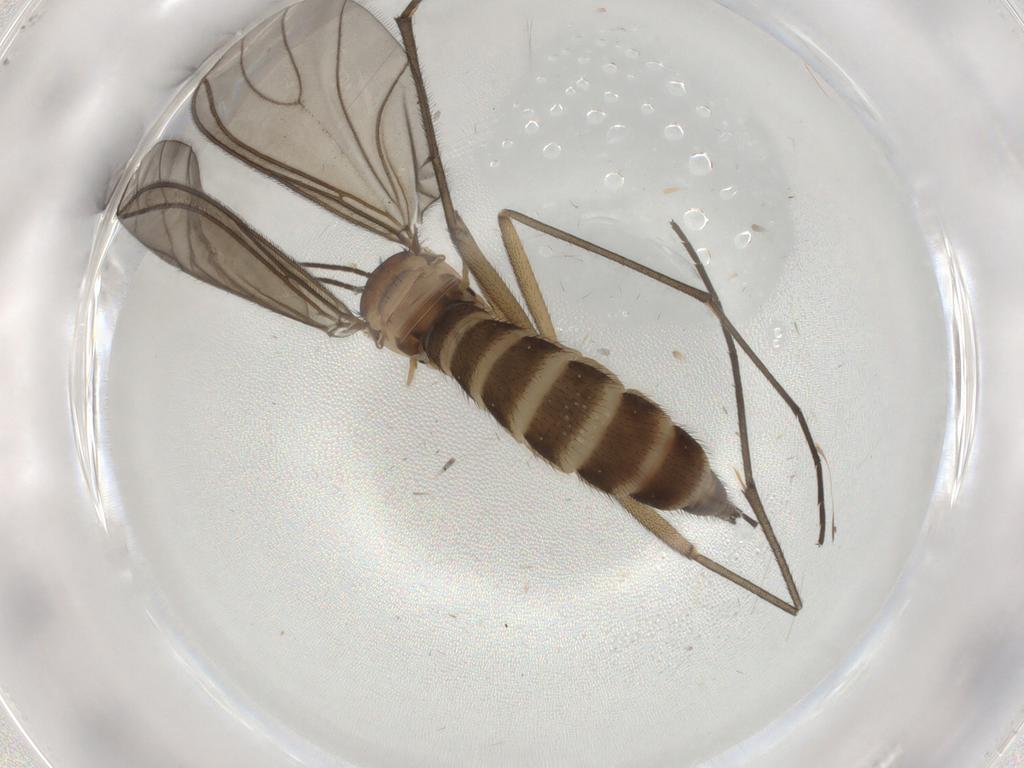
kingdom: Animalia
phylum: Arthropoda
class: Insecta
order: Diptera
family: Sciaridae
